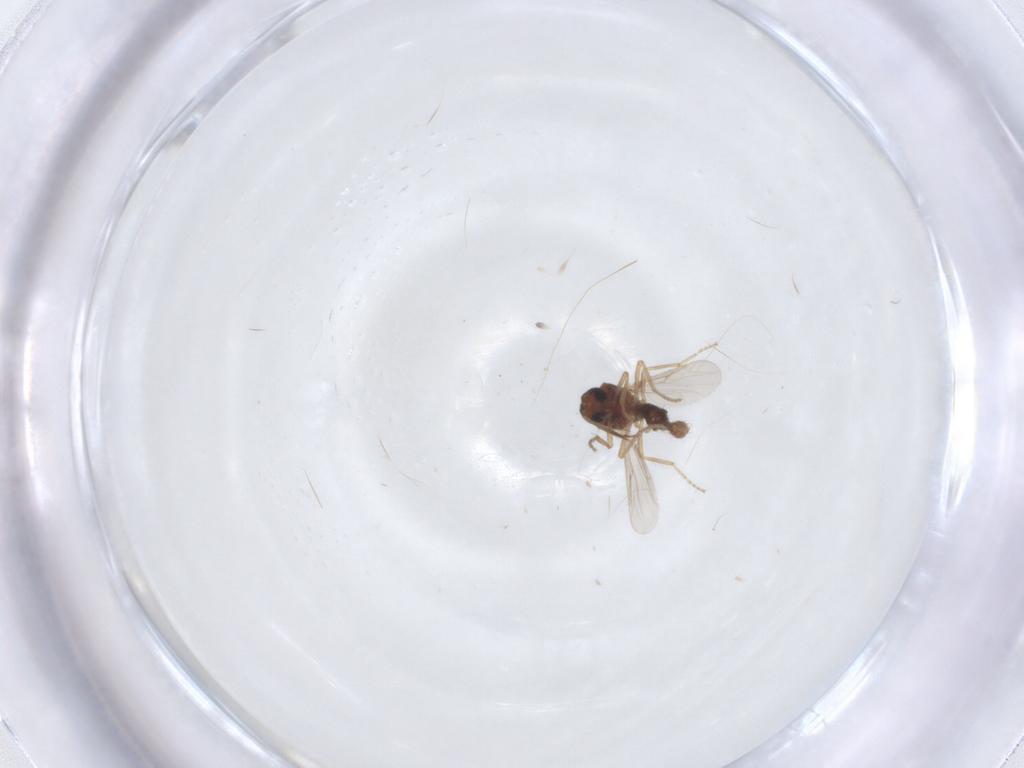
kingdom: Animalia
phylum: Arthropoda
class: Insecta
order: Diptera
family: Ceratopogonidae
